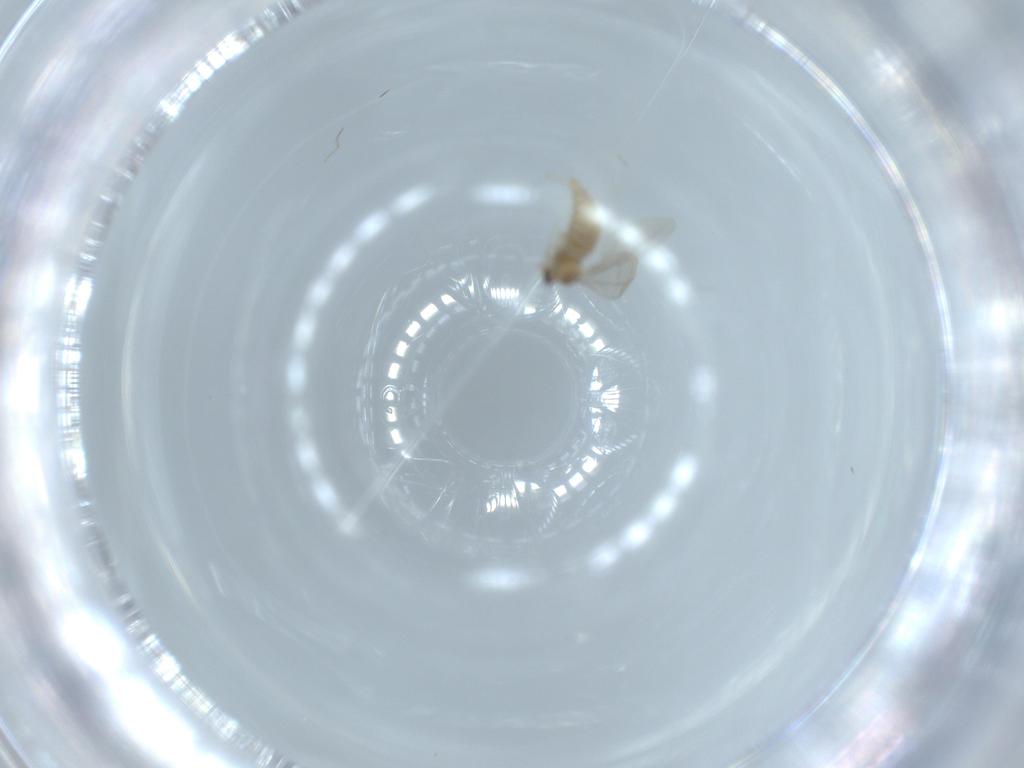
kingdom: Animalia
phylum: Arthropoda
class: Insecta
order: Diptera
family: Cecidomyiidae
